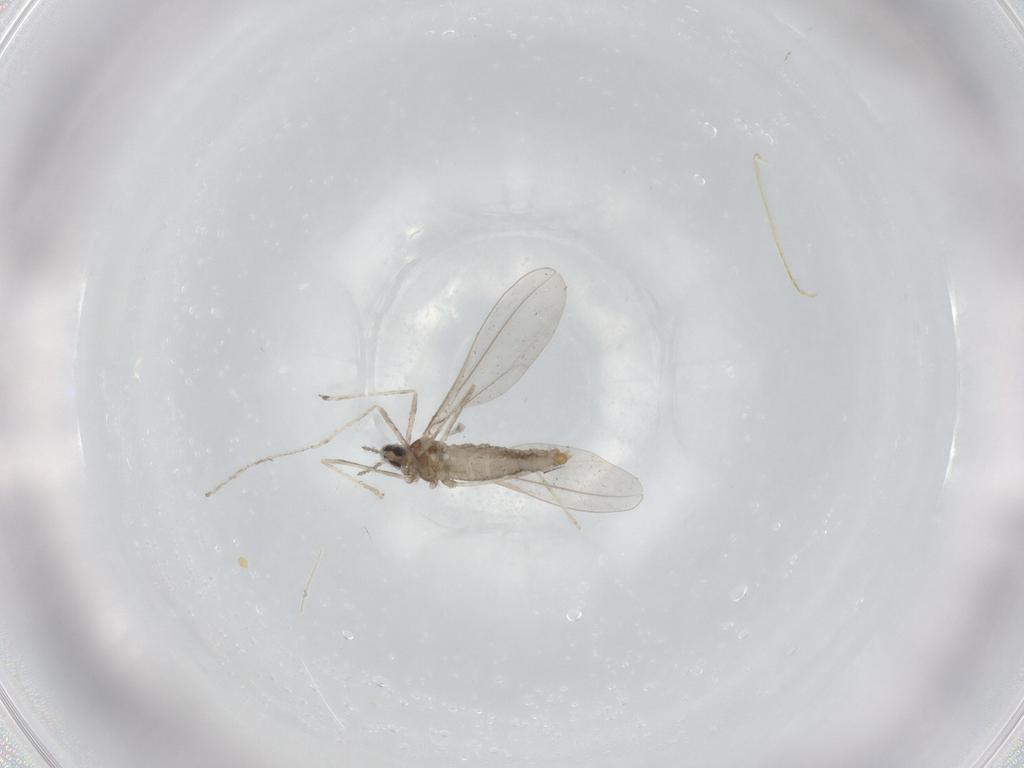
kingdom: Animalia
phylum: Arthropoda
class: Insecta
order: Diptera
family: Cecidomyiidae
